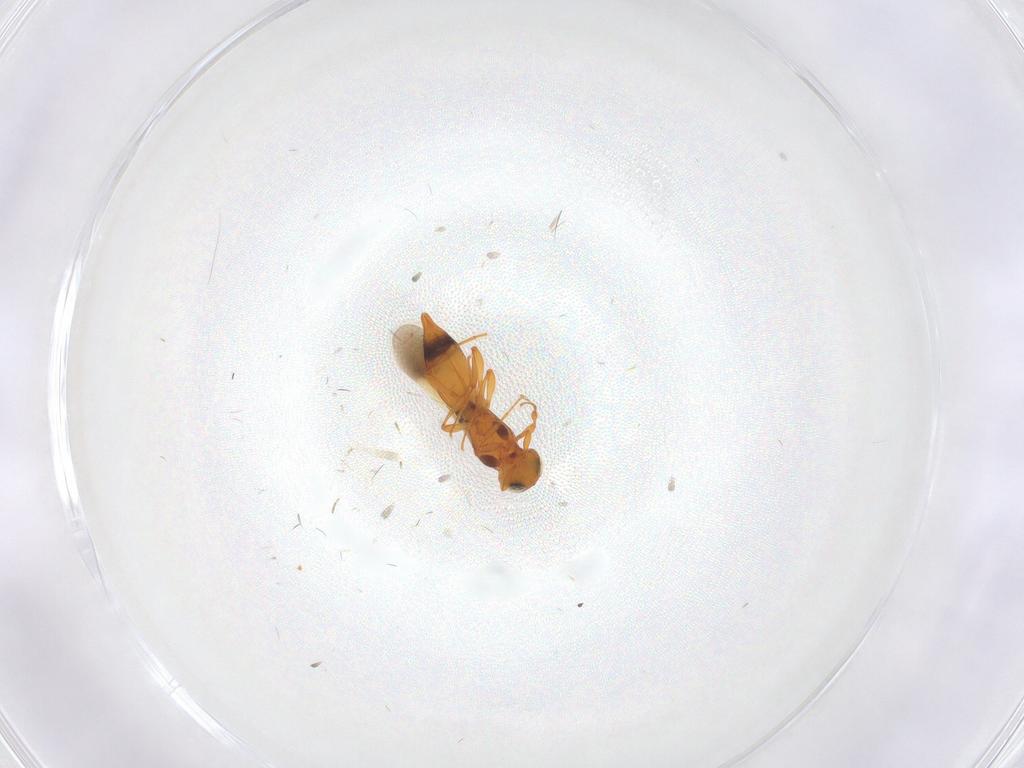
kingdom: Animalia
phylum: Arthropoda
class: Insecta
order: Hymenoptera
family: Platygastridae
